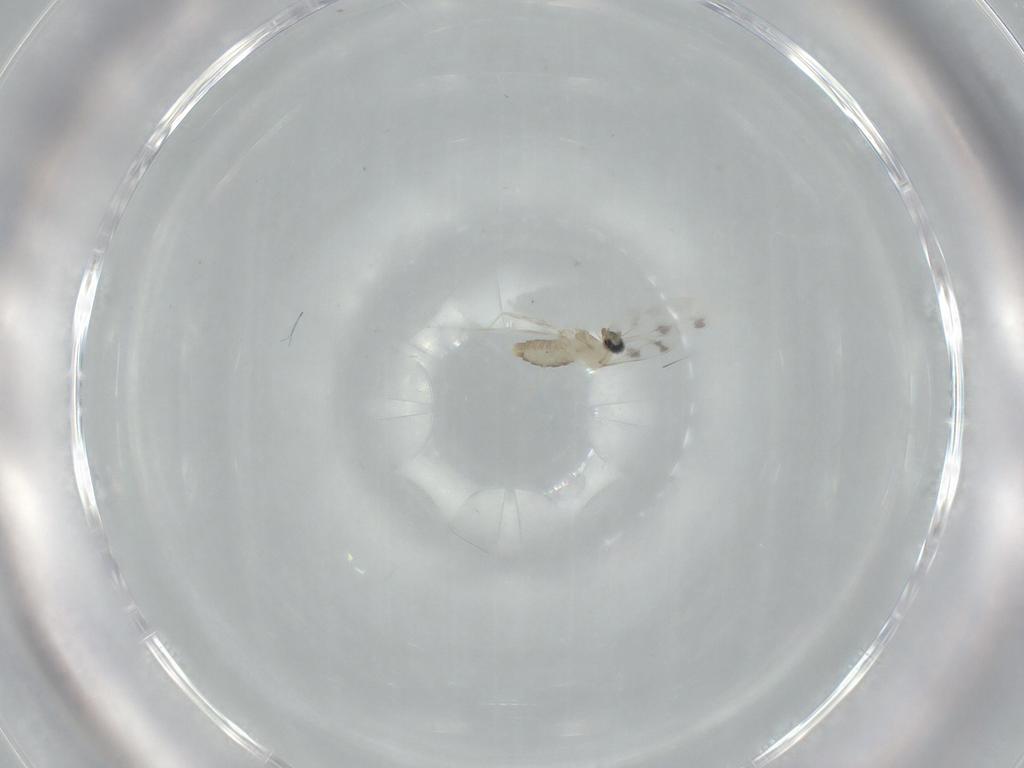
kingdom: Animalia
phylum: Arthropoda
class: Insecta
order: Diptera
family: Cecidomyiidae
